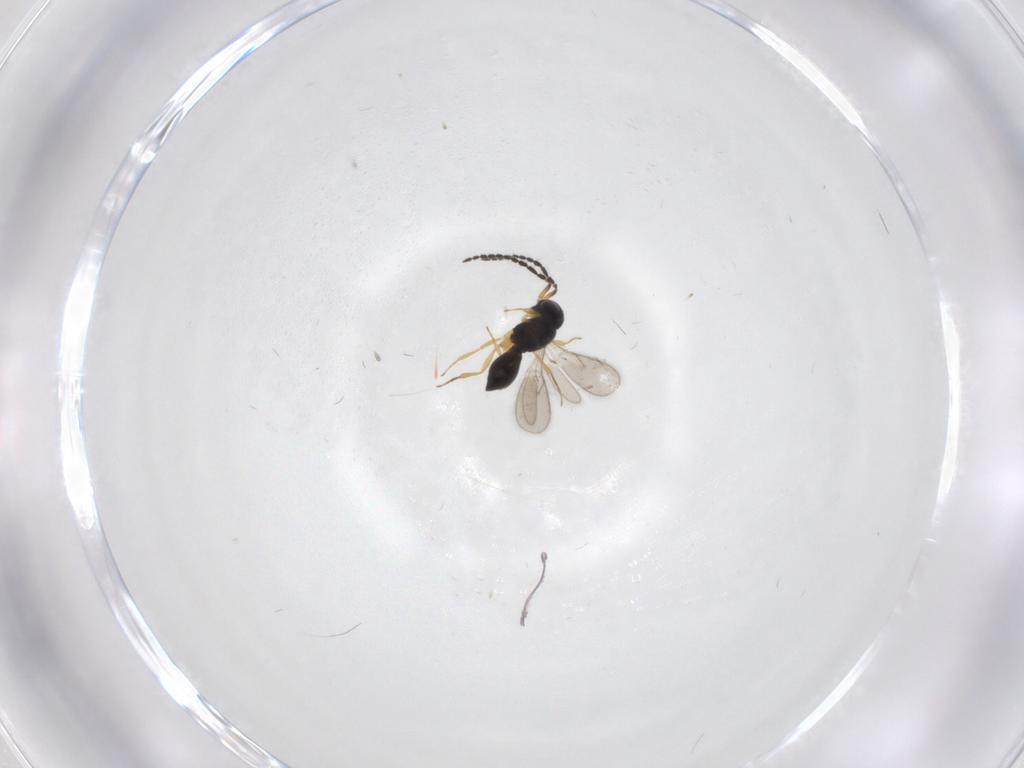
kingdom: Animalia
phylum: Arthropoda
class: Insecta
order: Hymenoptera
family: Scelionidae
